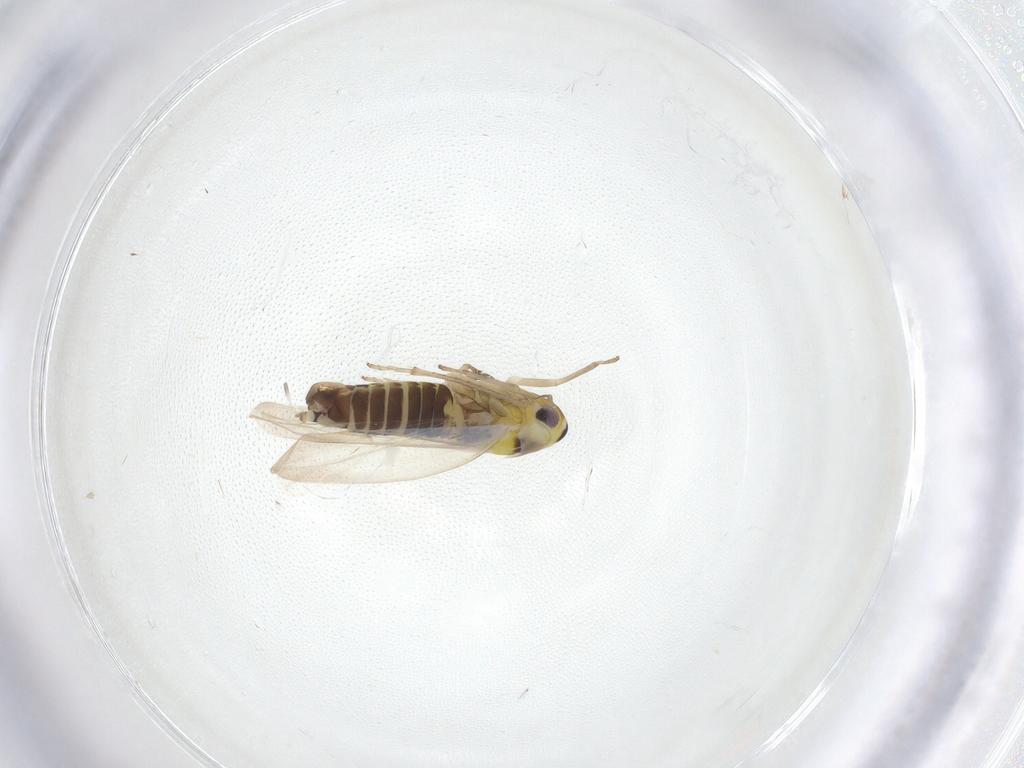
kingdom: Animalia
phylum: Arthropoda
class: Insecta
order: Hemiptera
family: Cicadellidae
